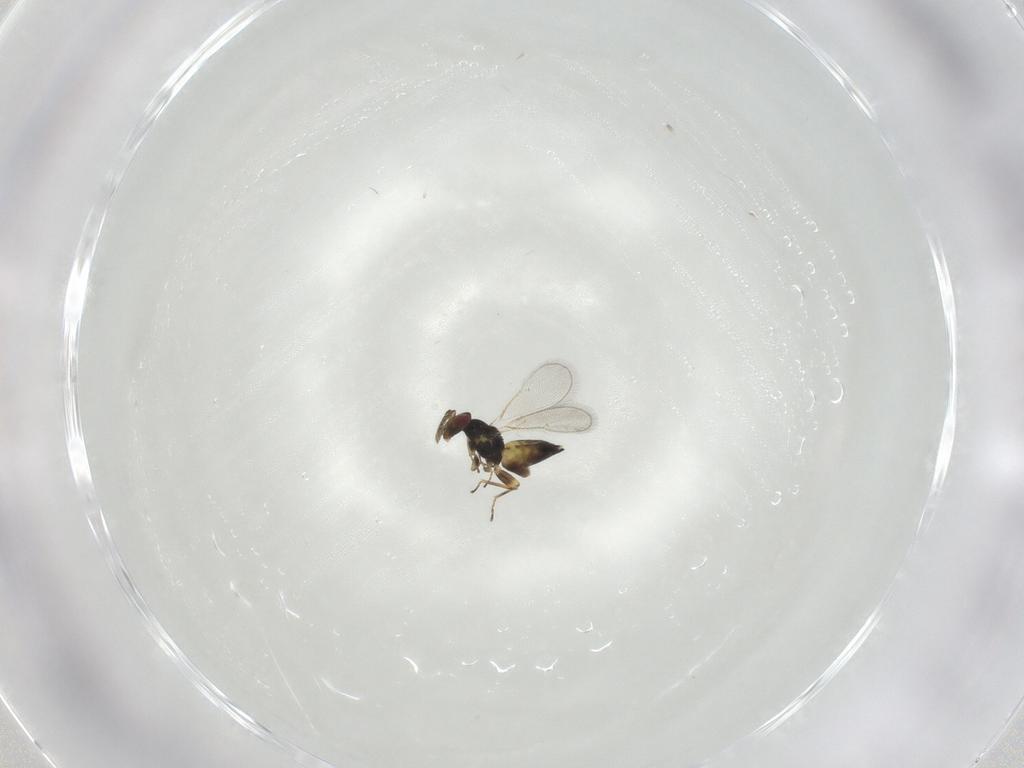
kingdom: Animalia
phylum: Arthropoda
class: Insecta
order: Hymenoptera
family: Eulophidae
